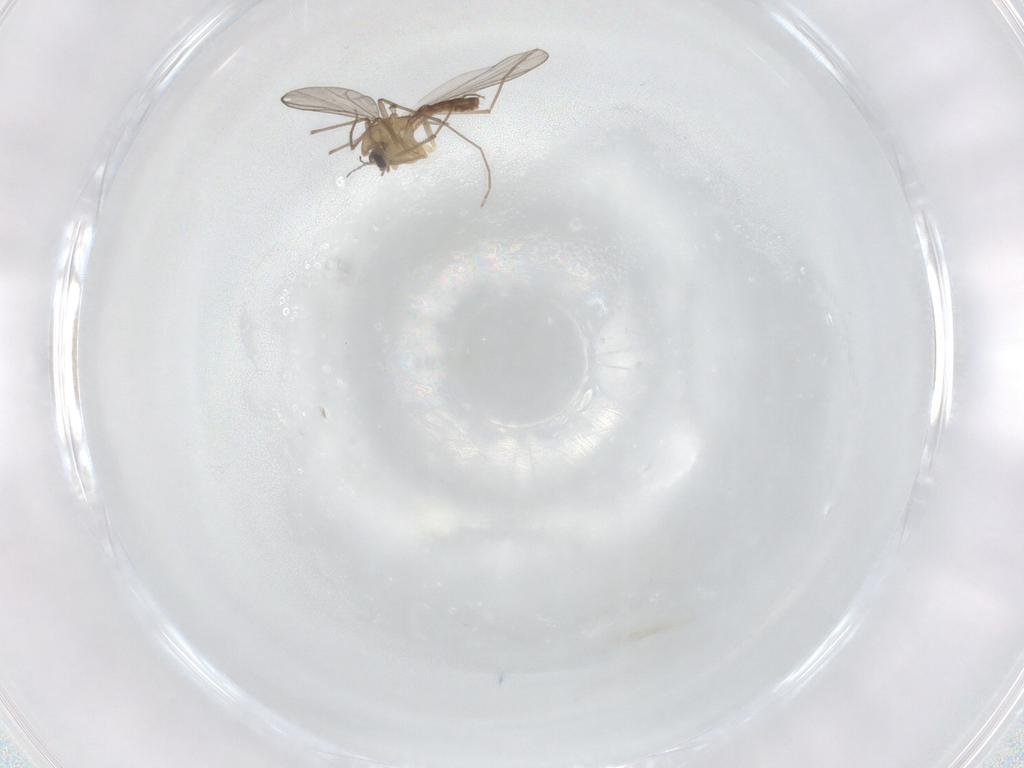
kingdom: Animalia
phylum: Arthropoda
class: Insecta
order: Diptera
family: Chironomidae
